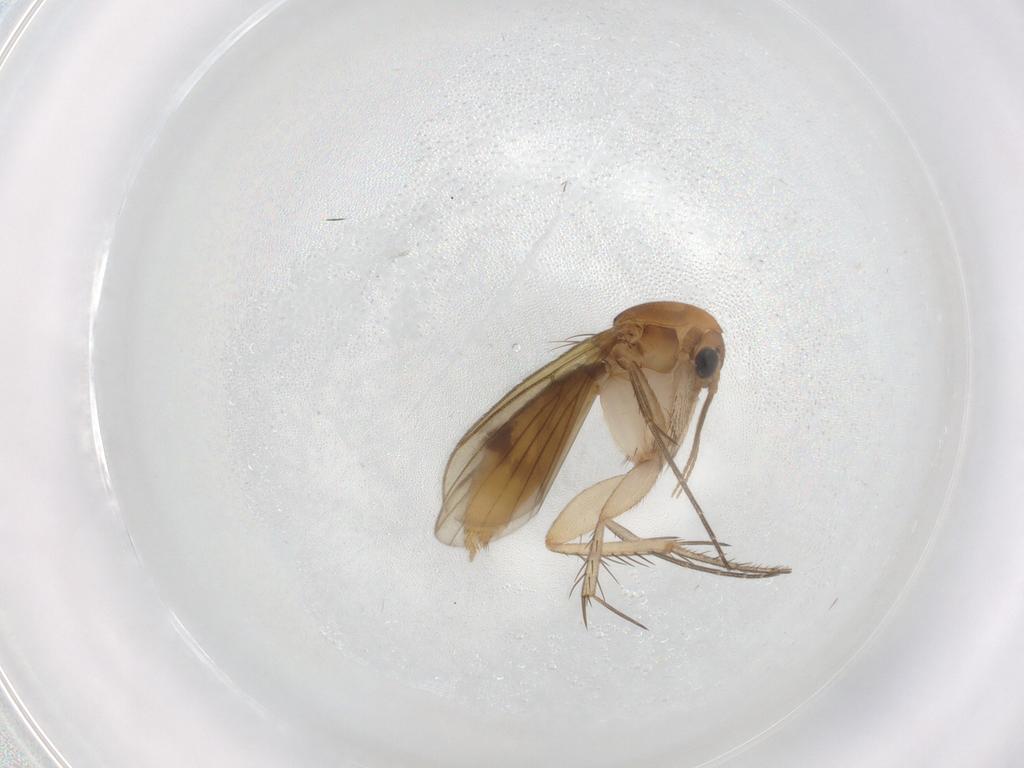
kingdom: Animalia
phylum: Arthropoda
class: Insecta
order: Diptera
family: Mycetophilidae
